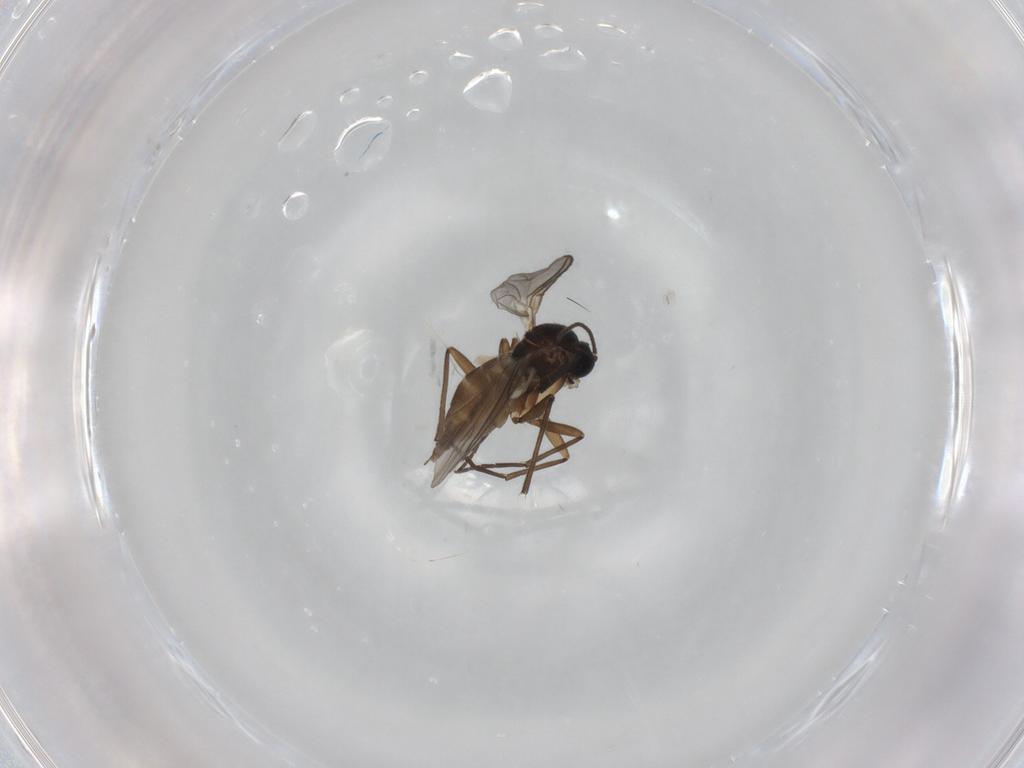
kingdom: Animalia
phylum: Arthropoda
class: Insecta
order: Diptera
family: Sciaridae
